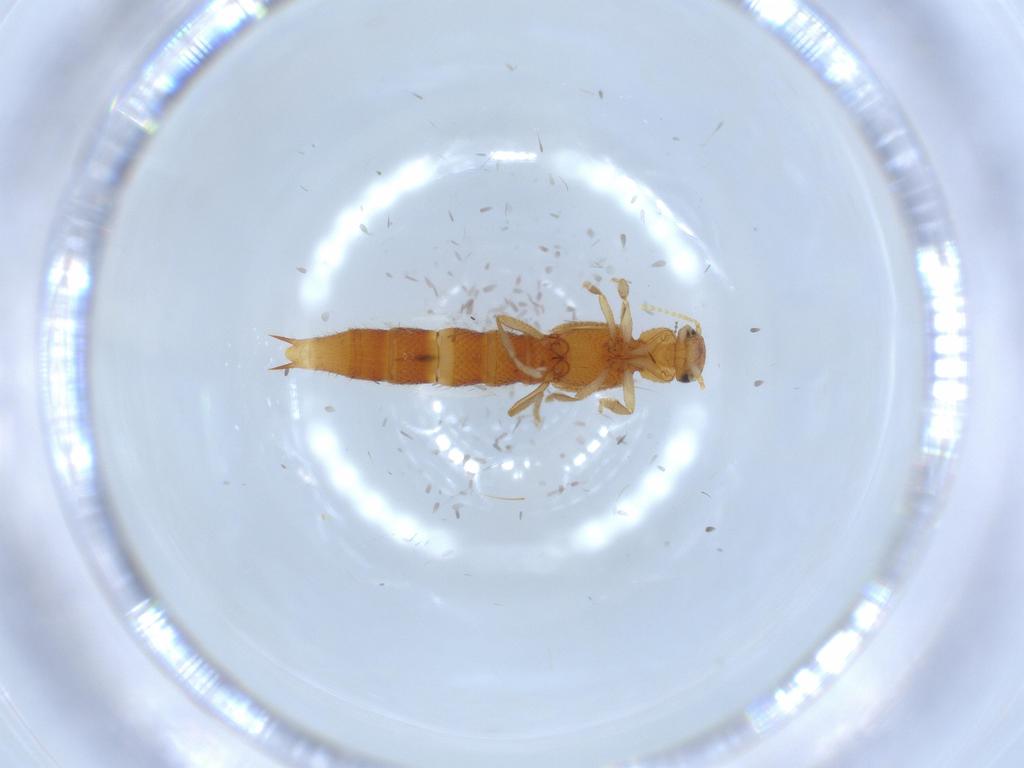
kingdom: Animalia
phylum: Arthropoda
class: Insecta
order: Coleoptera
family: Staphylinidae
